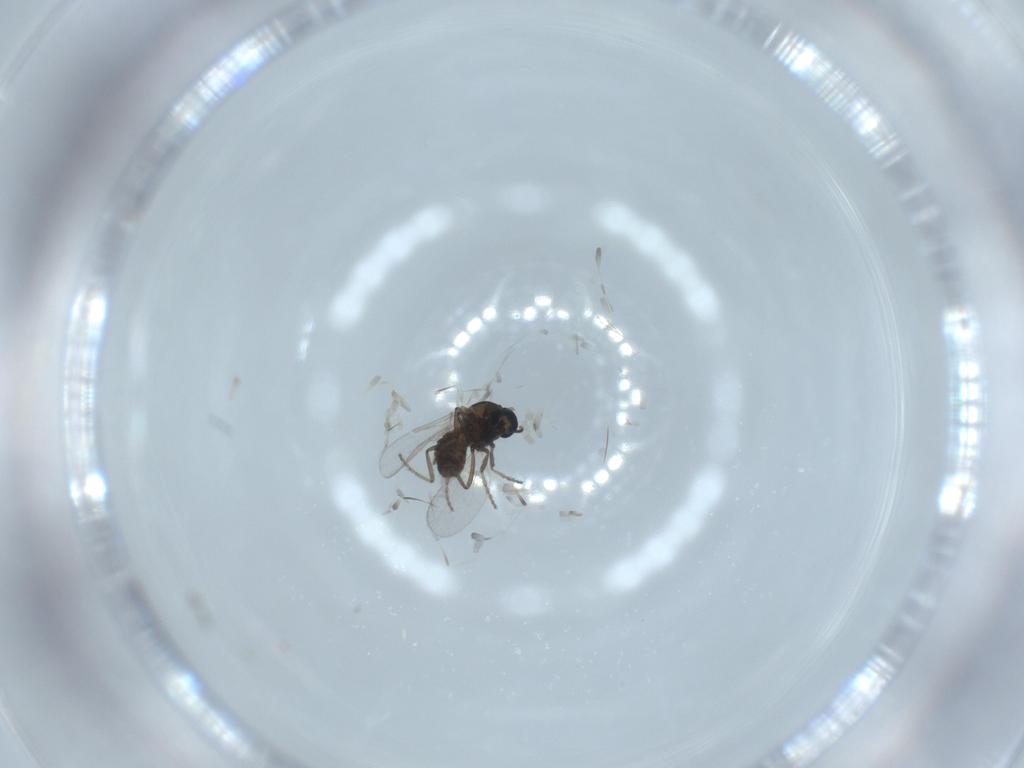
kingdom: Animalia
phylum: Arthropoda
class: Insecta
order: Diptera
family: Ceratopogonidae
